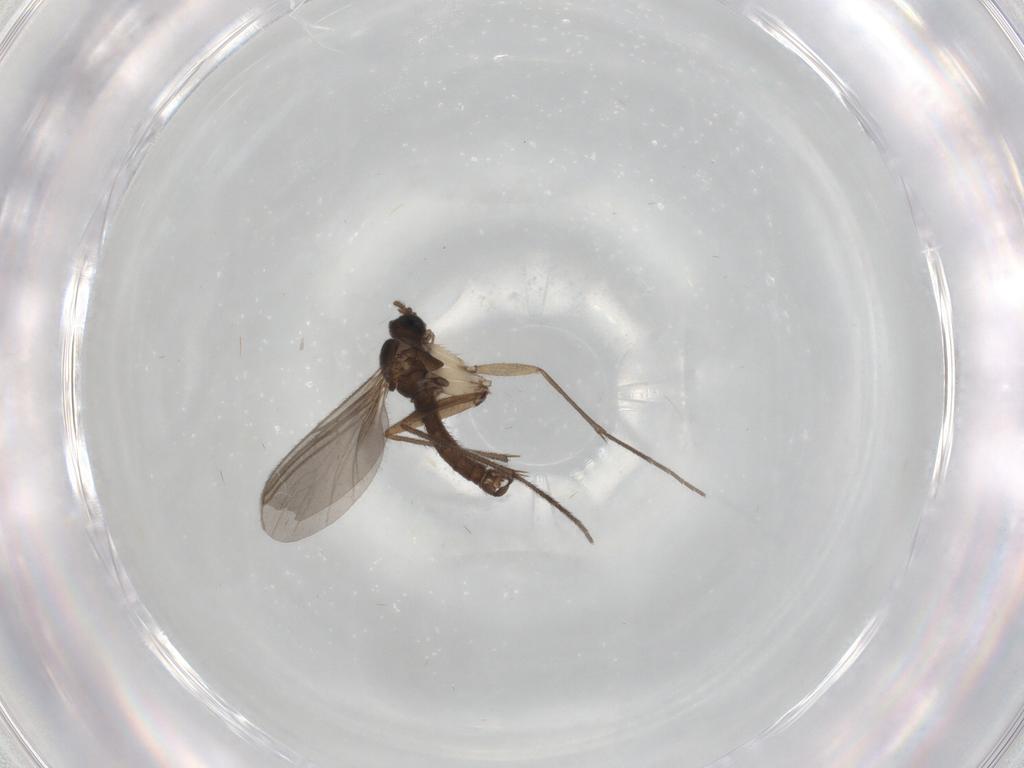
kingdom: Animalia
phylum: Arthropoda
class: Insecta
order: Diptera
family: Sciaridae
